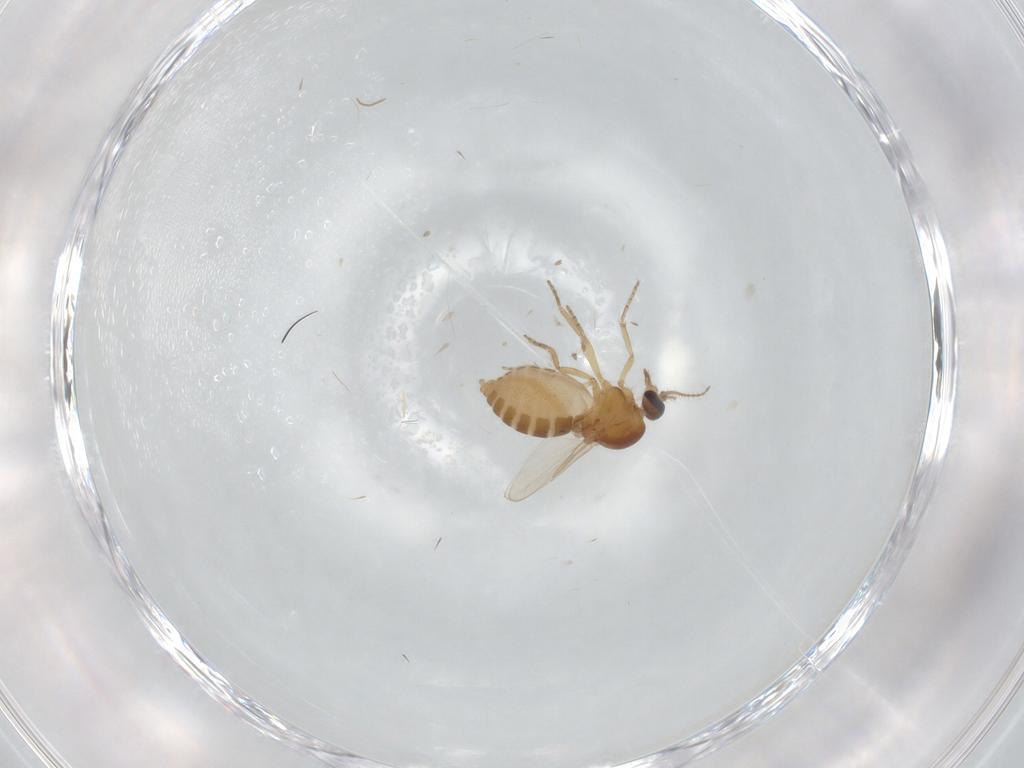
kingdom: Animalia
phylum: Arthropoda
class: Insecta
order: Diptera
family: Ceratopogonidae
